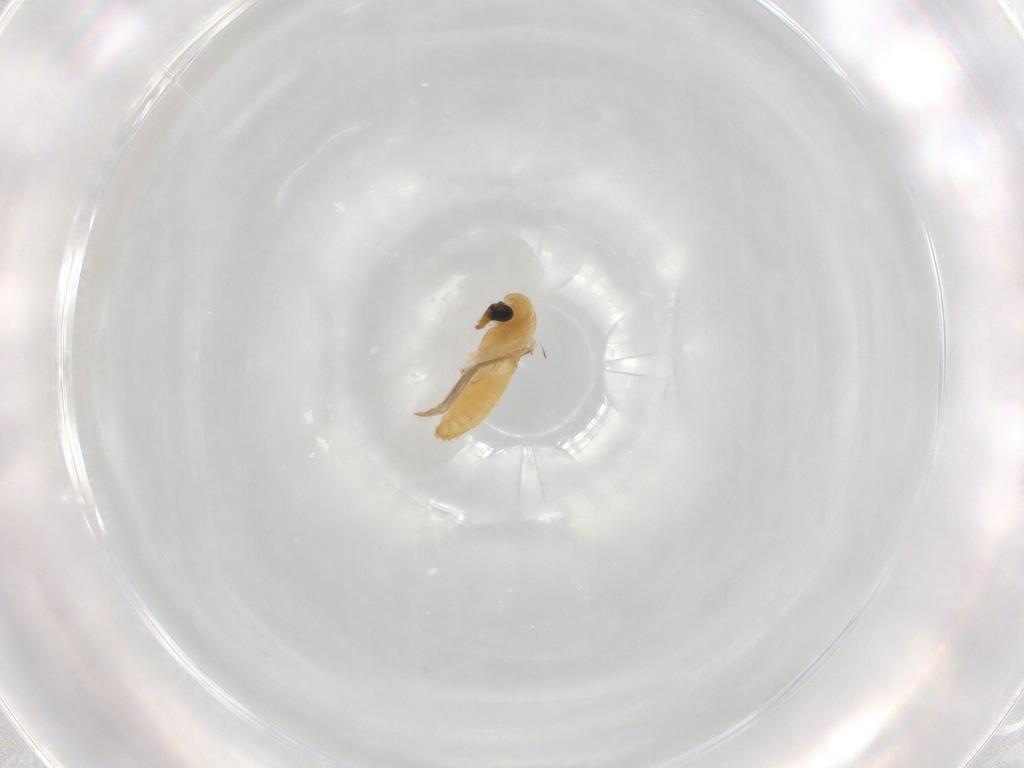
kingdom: Animalia
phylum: Arthropoda
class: Insecta
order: Diptera
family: Chironomidae
